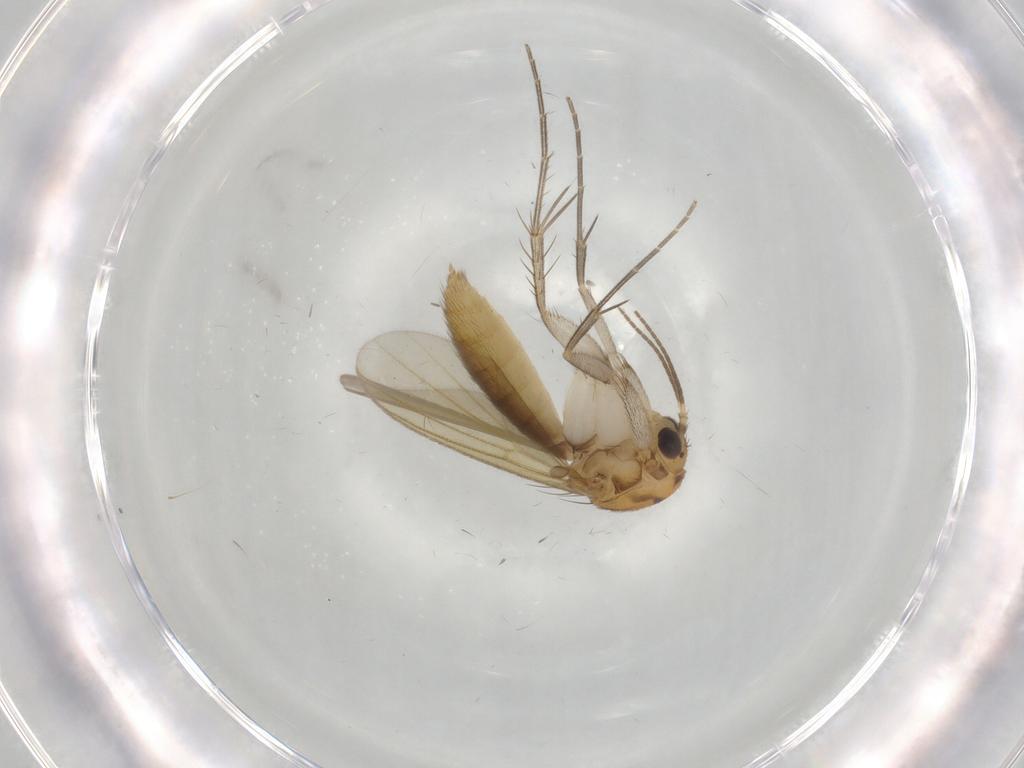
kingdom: Animalia
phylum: Arthropoda
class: Insecta
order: Diptera
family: Mycetophilidae
